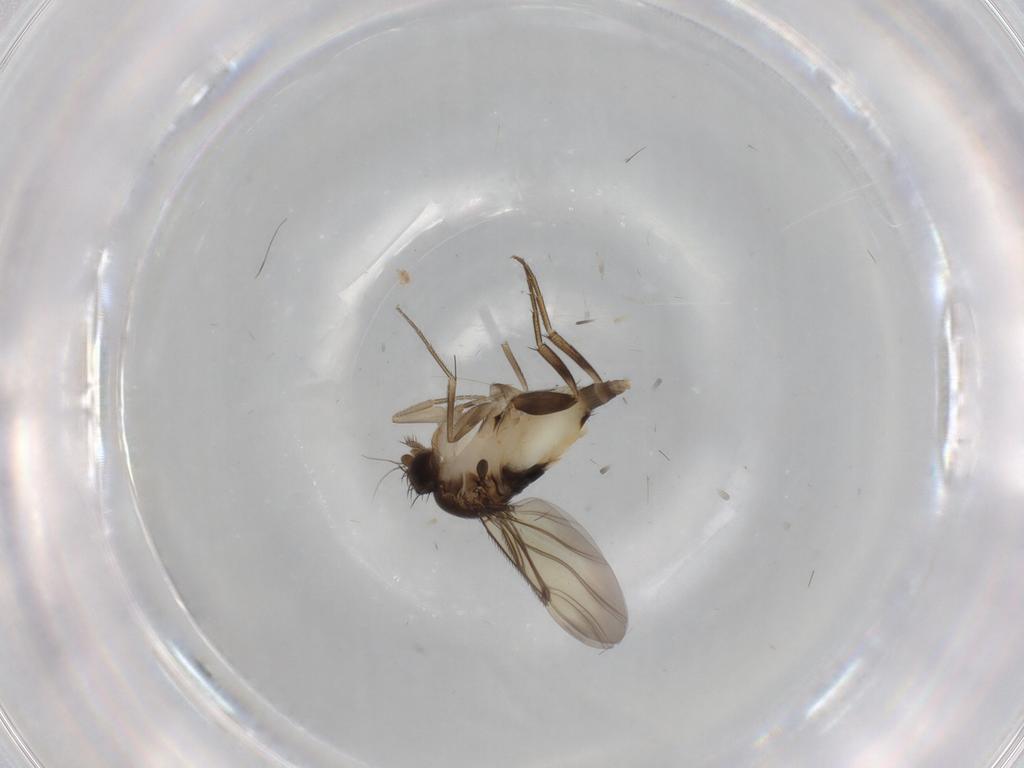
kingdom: Animalia
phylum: Arthropoda
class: Insecta
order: Diptera
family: Phoridae
